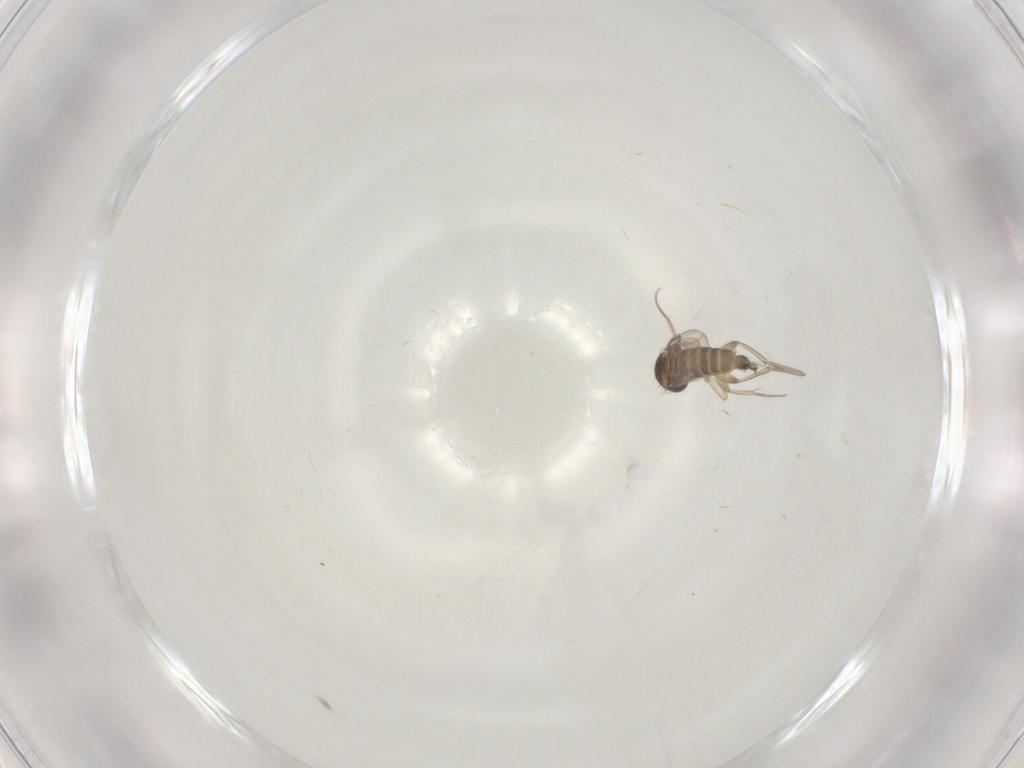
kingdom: Animalia
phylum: Arthropoda
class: Insecta
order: Diptera
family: Phoridae
